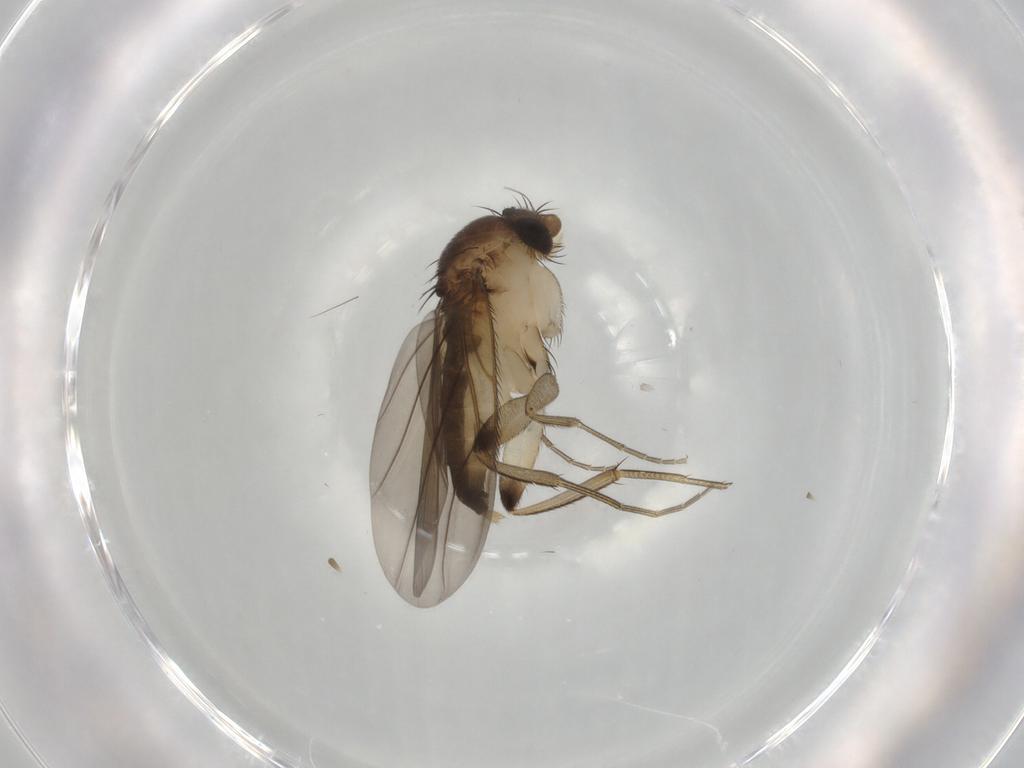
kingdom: Animalia
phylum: Arthropoda
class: Insecta
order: Diptera
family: Phoridae
